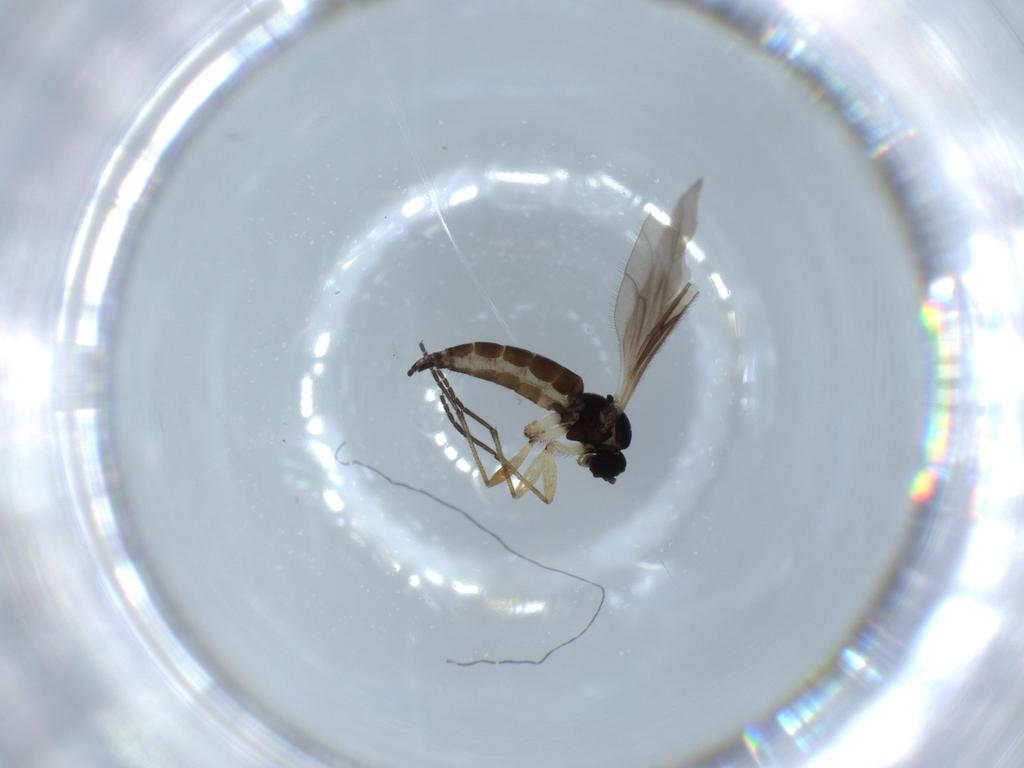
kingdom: Animalia
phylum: Arthropoda
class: Insecta
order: Diptera
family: Sciaridae
